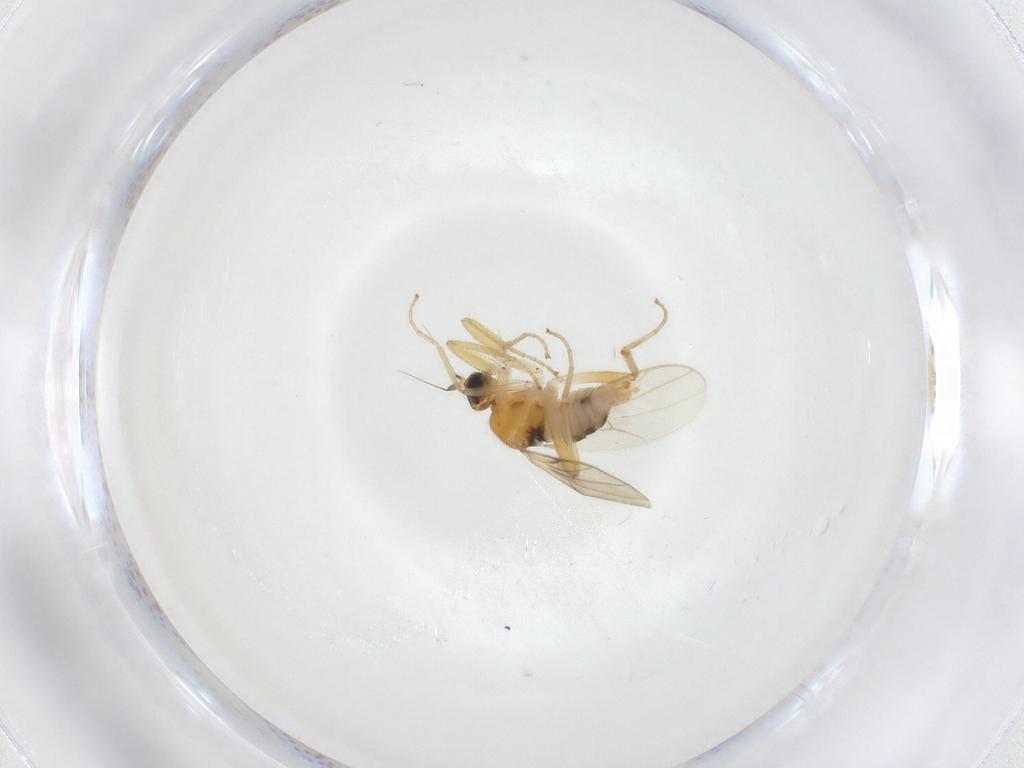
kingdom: Animalia
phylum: Arthropoda
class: Insecta
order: Diptera
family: Hybotidae
